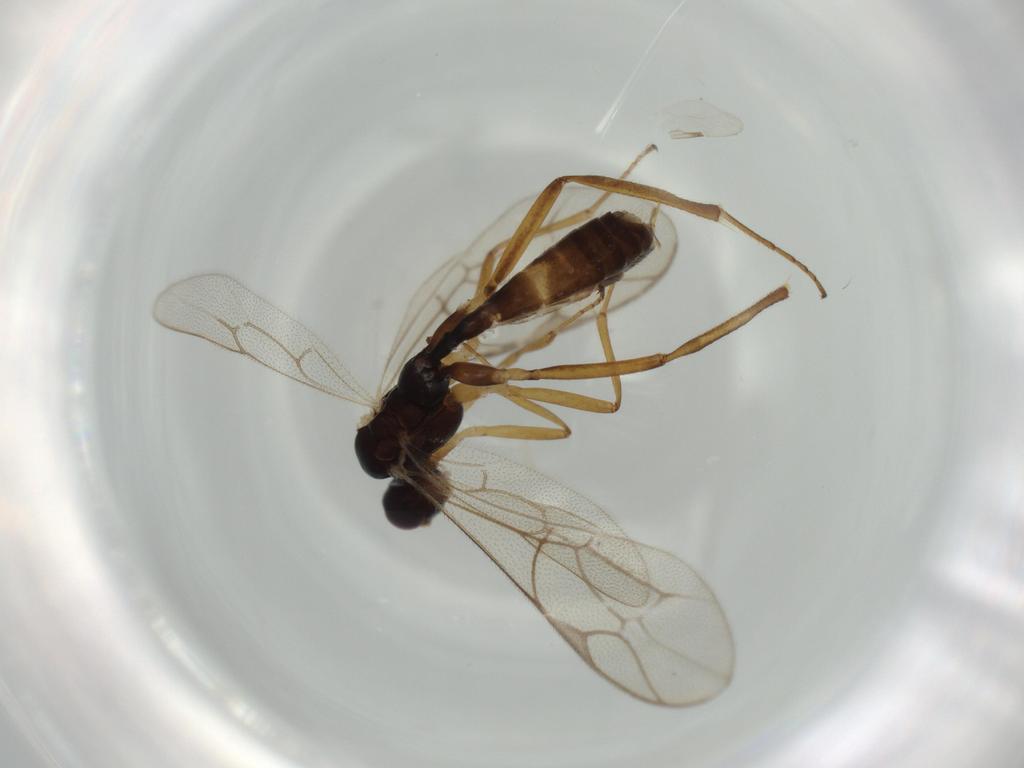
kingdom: Animalia
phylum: Arthropoda
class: Insecta
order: Hymenoptera
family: Ichneumonidae
